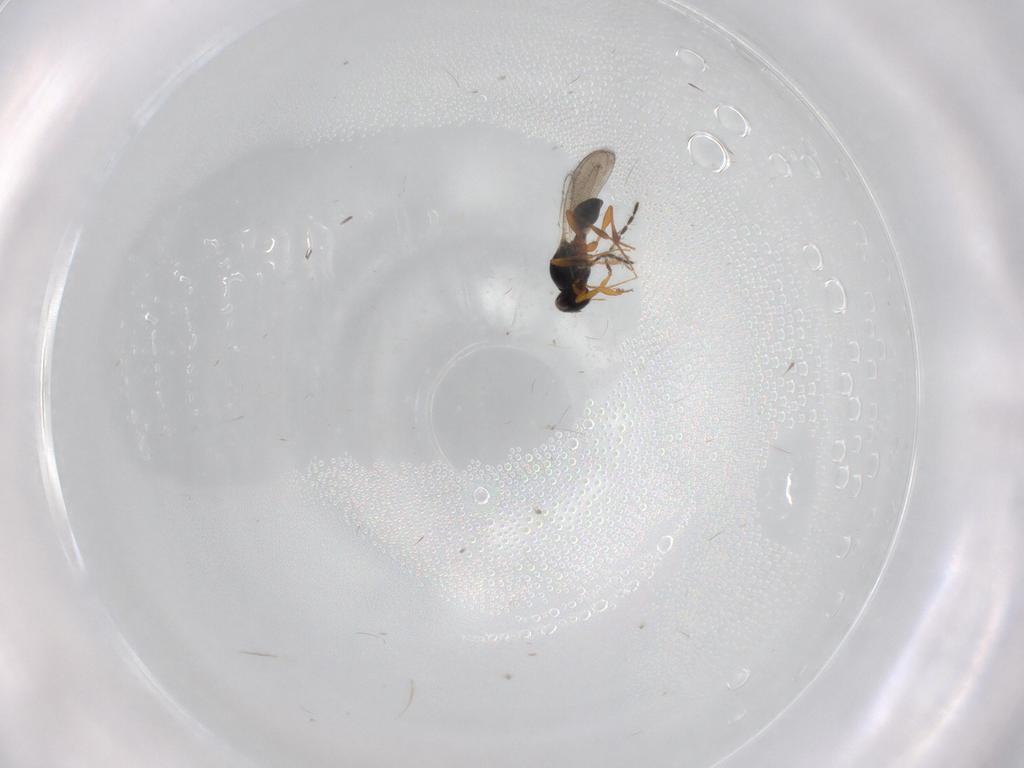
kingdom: Animalia
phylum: Arthropoda
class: Insecta
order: Hymenoptera
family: Platygastridae
